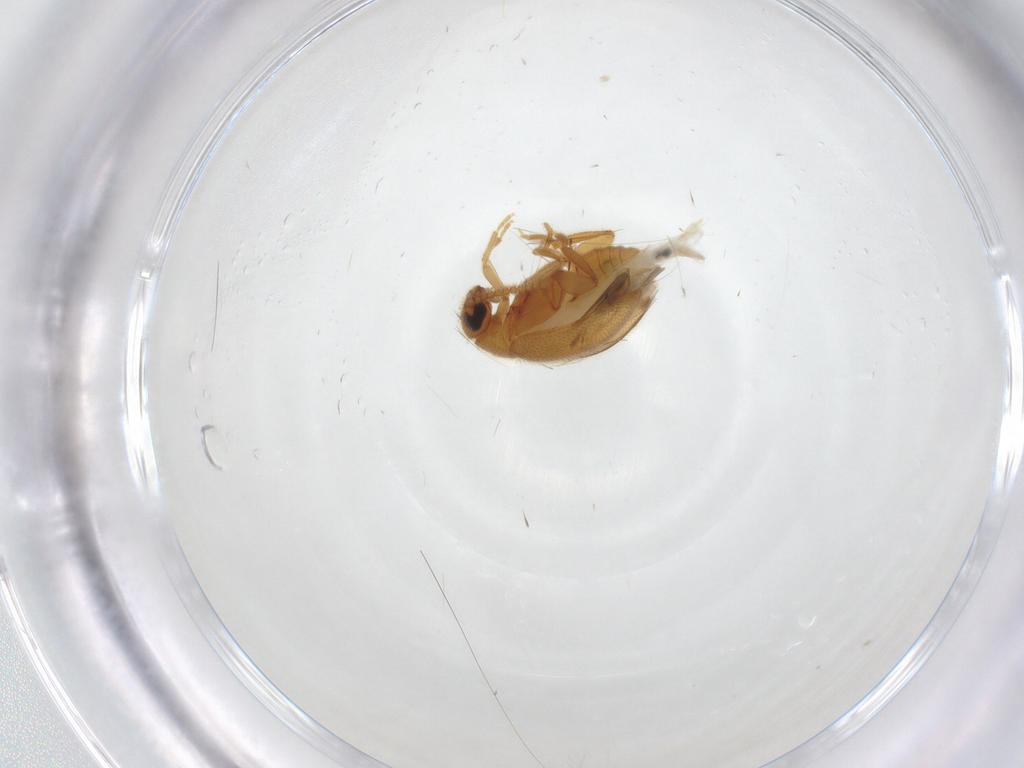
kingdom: Animalia
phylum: Arthropoda
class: Insecta
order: Coleoptera
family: Aderidae
